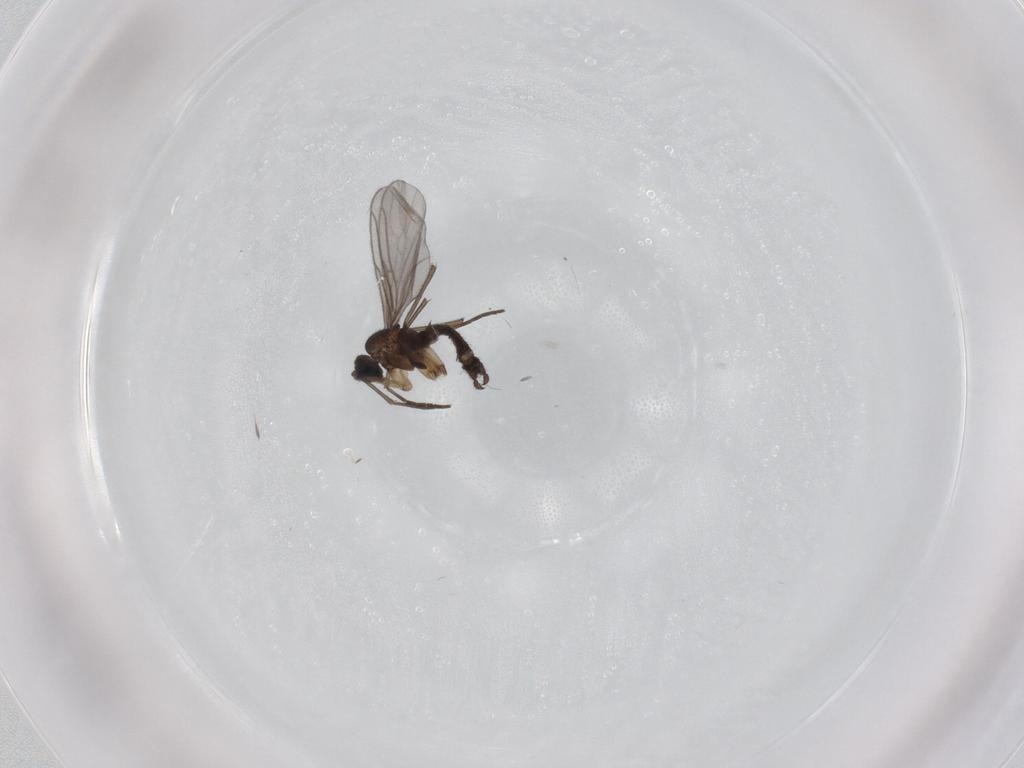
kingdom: Animalia
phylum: Arthropoda
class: Insecta
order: Diptera
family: Sciaridae
